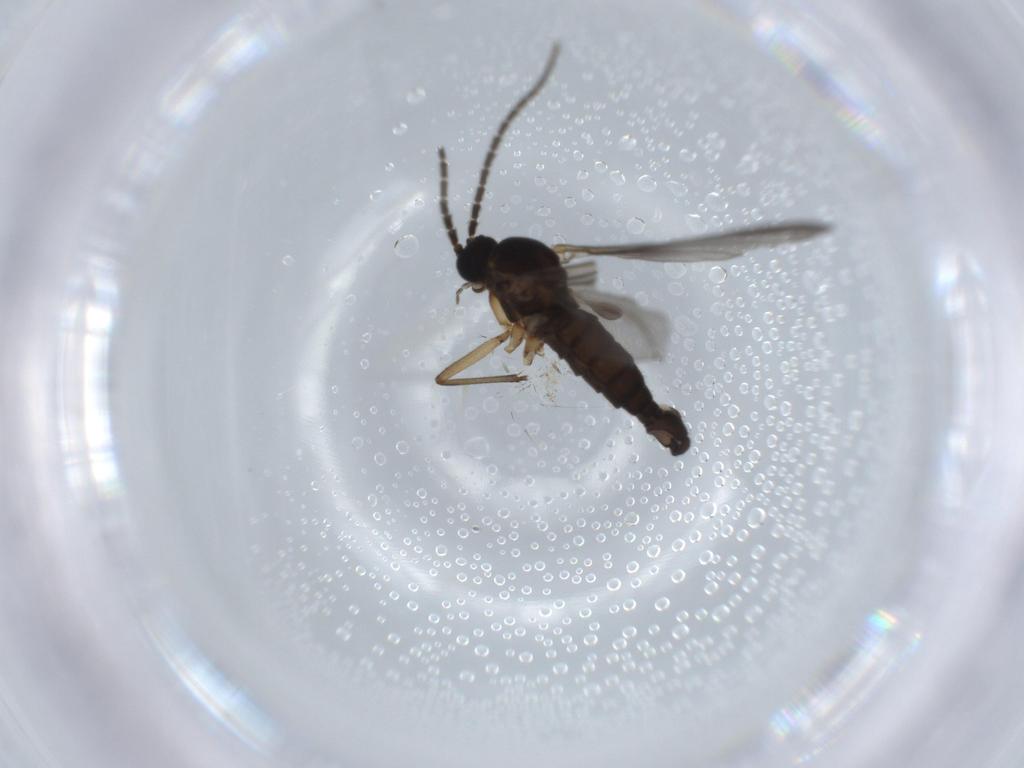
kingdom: Animalia
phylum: Arthropoda
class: Insecta
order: Diptera
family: Sciaridae
